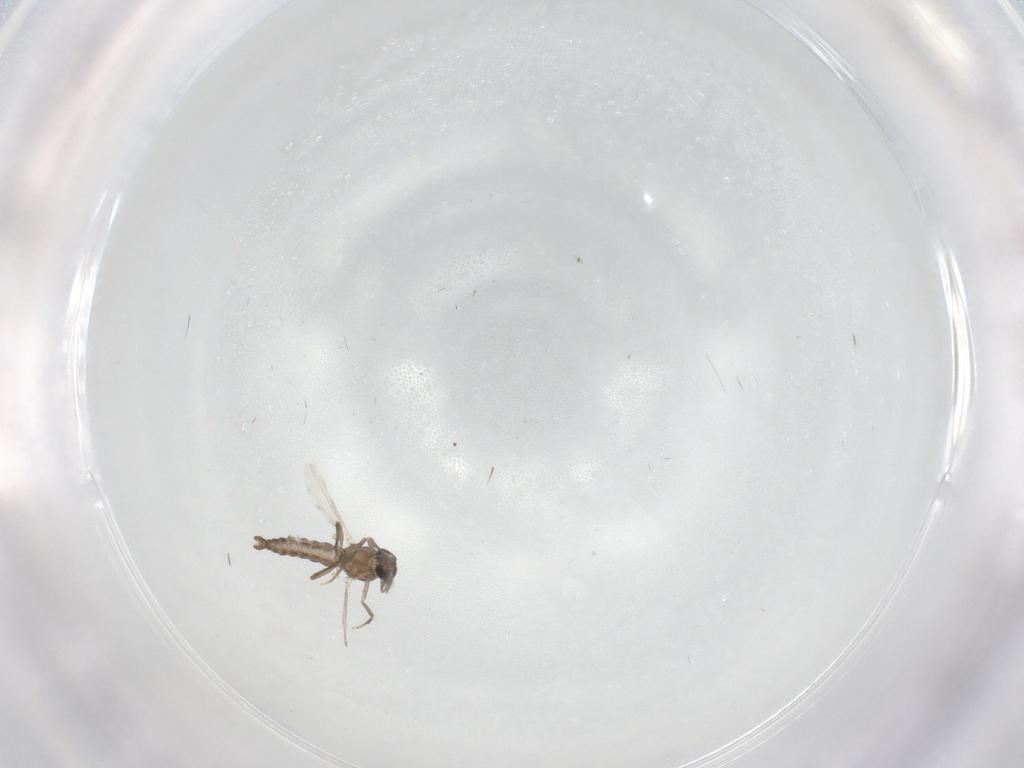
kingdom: Animalia
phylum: Arthropoda
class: Insecta
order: Diptera
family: Ceratopogonidae
